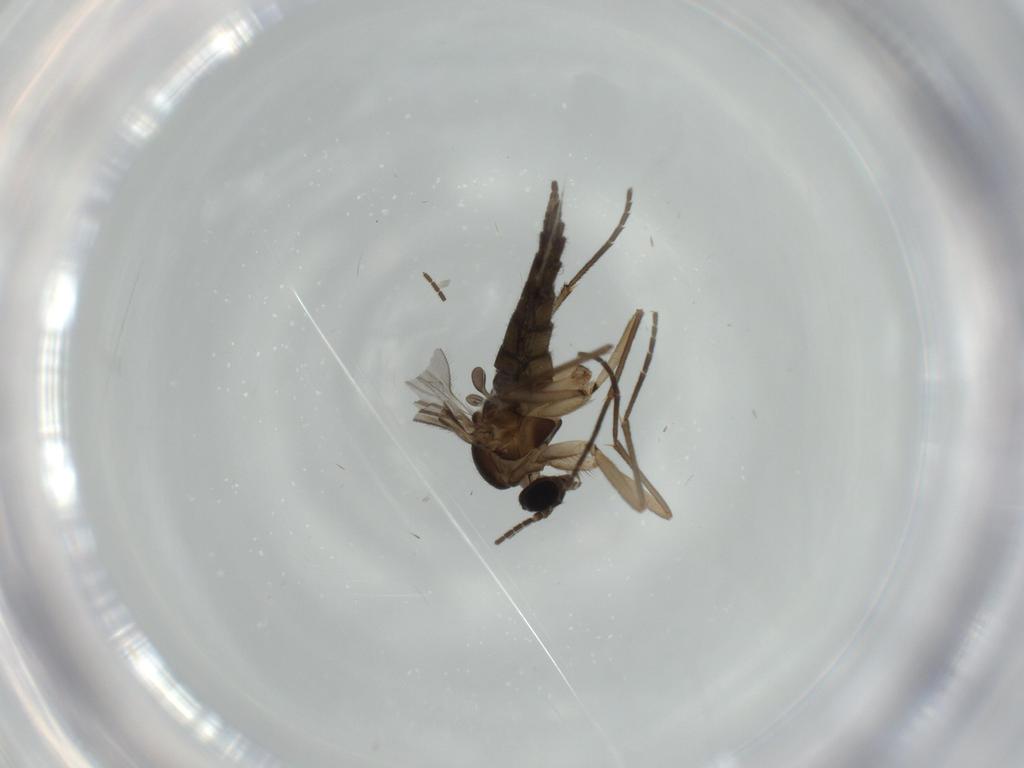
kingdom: Animalia
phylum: Arthropoda
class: Insecta
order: Diptera
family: Sciaridae
